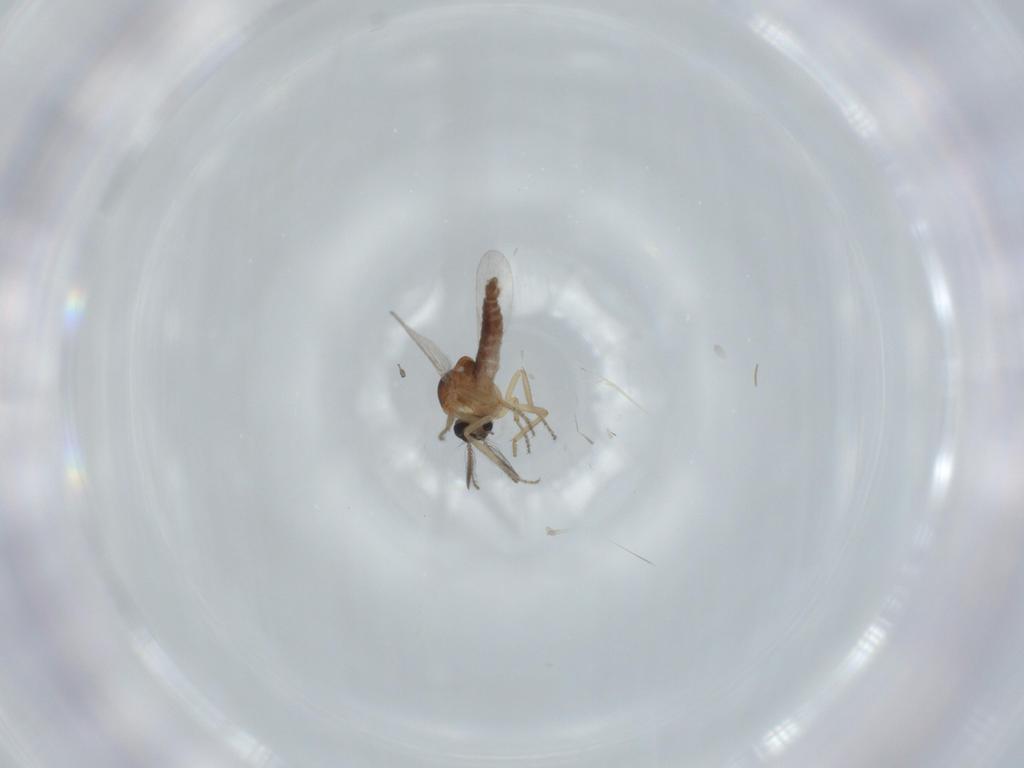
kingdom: Animalia
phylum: Arthropoda
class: Insecta
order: Diptera
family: Ceratopogonidae
